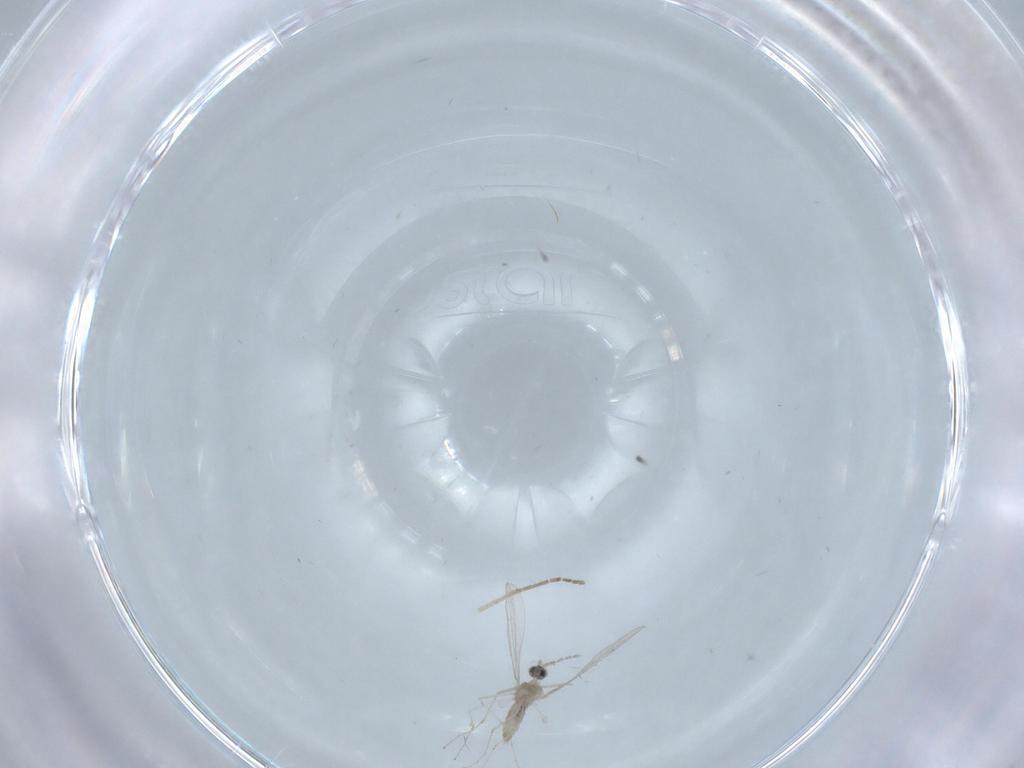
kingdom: Animalia
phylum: Arthropoda
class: Insecta
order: Diptera
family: Cecidomyiidae
